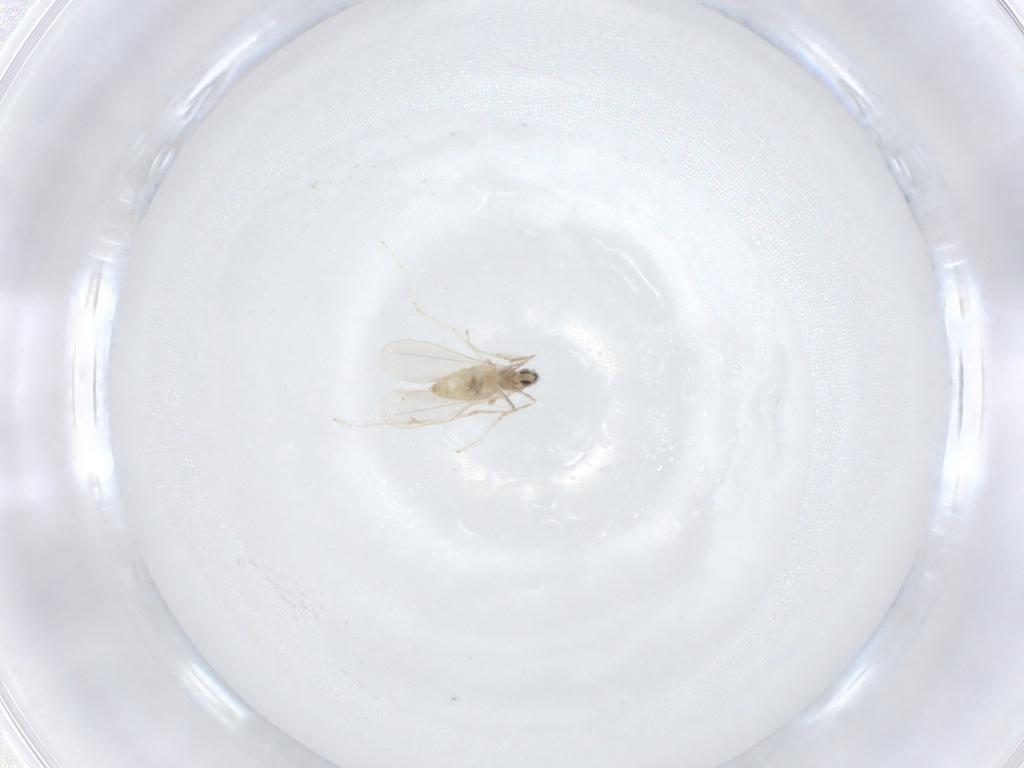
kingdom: Animalia
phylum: Arthropoda
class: Insecta
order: Diptera
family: Cecidomyiidae
